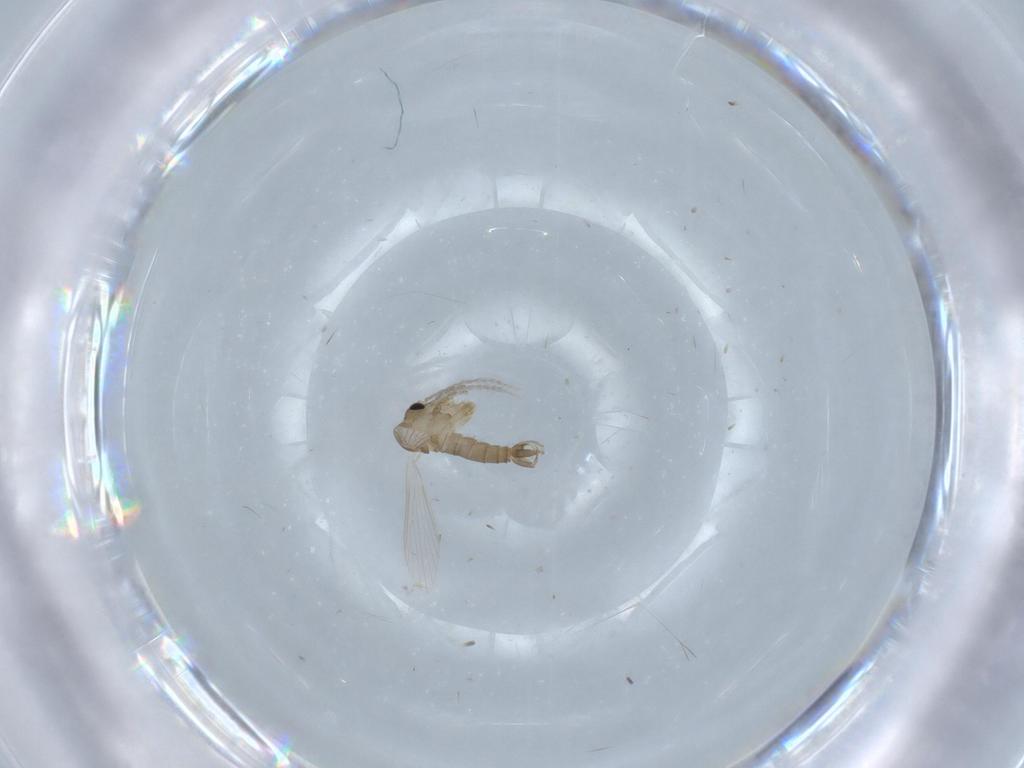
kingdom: Animalia
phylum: Arthropoda
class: Insecta
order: Diptera
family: Psychodidae
